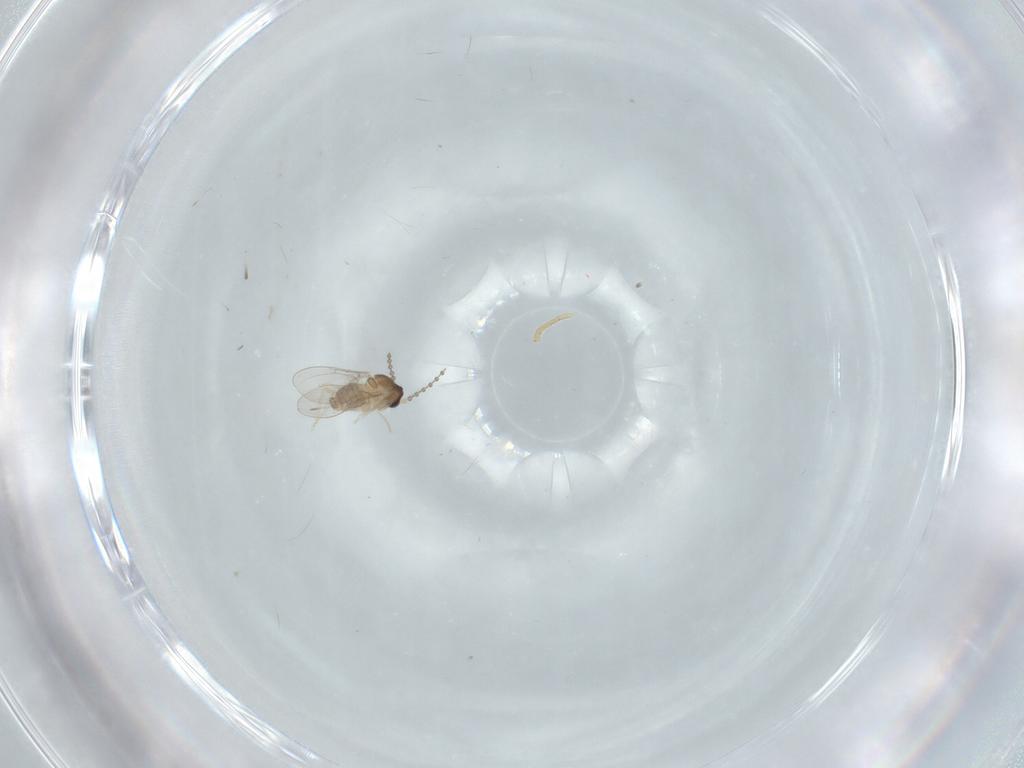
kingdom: Animalia
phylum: Arthropoda
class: Insecta
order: Diptera
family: Cecidomyiidae
